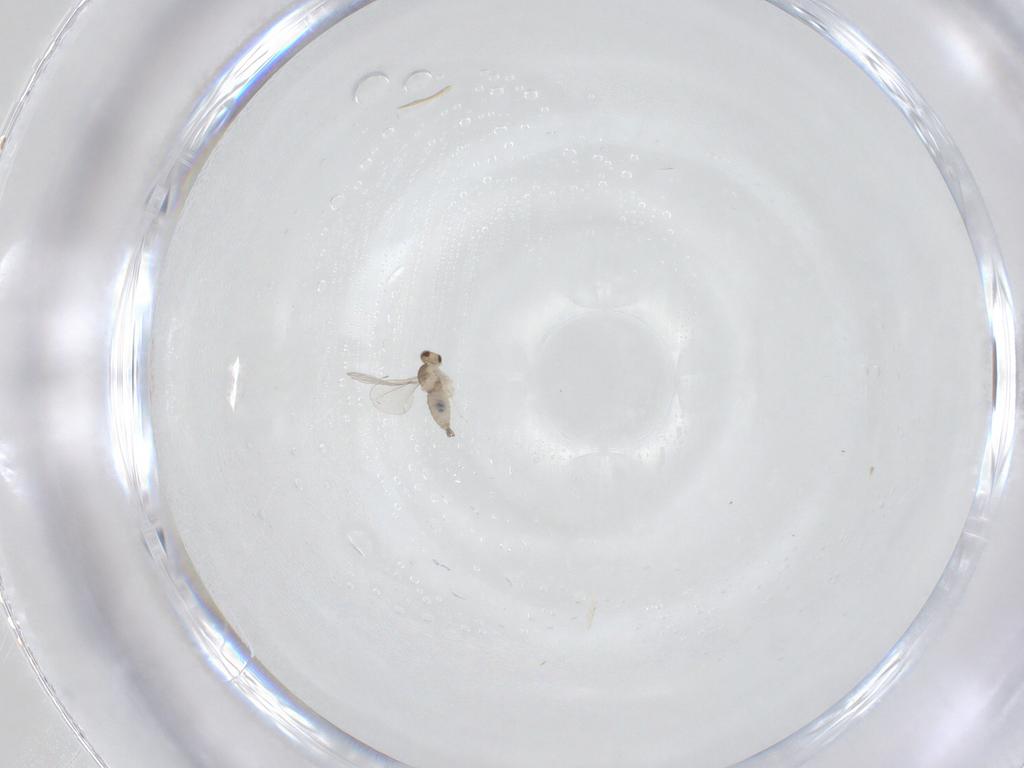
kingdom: Animalia
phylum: Arthropoda
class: Insecta
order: Diptera
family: Cecidomyiidae
